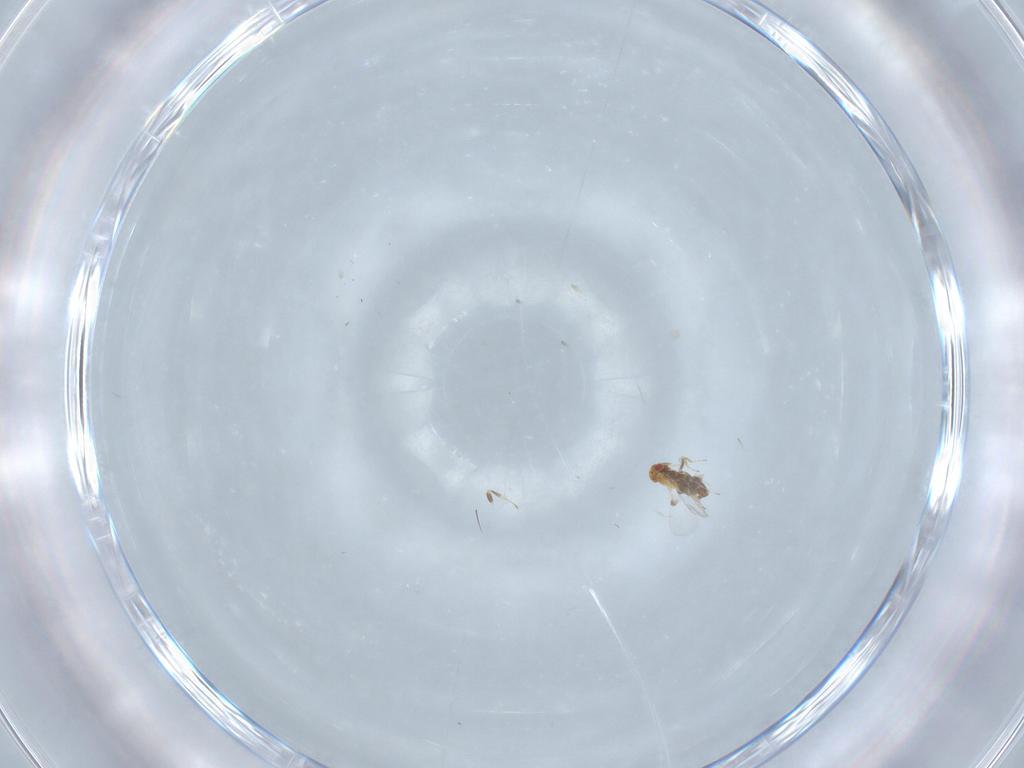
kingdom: Animalia
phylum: Arthropoda
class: Insecta
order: Hymenoptera
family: Trichogrammatidae
